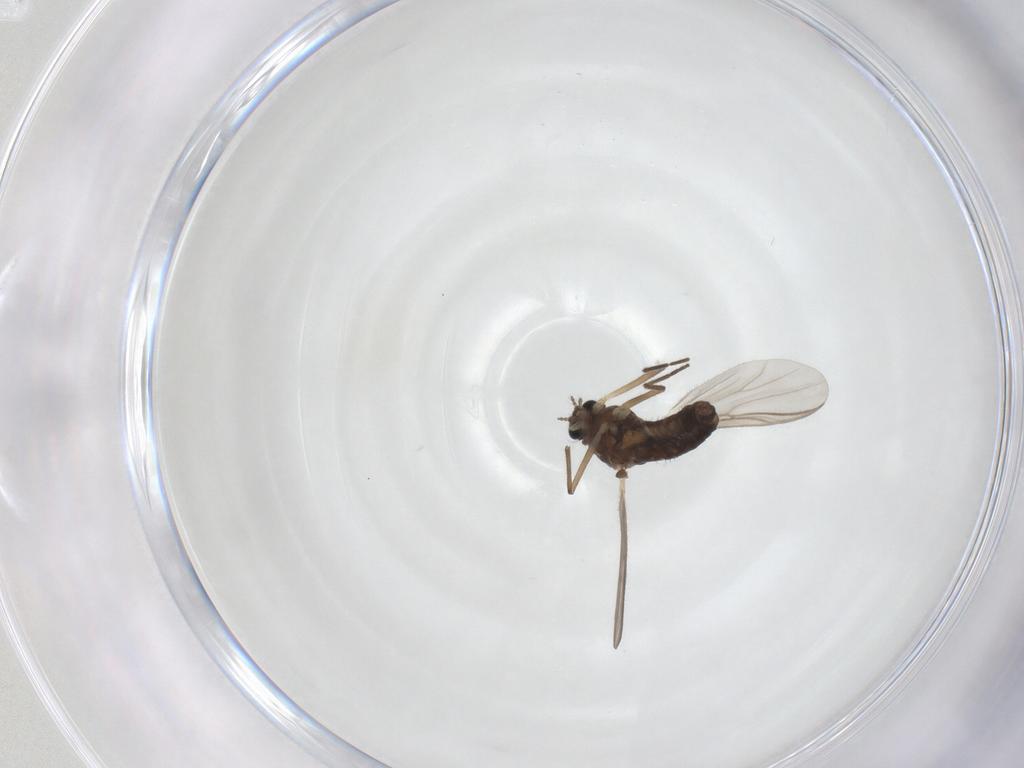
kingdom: Animalia
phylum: Arthropoda
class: Insecta
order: Diptera
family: Chironomidae
